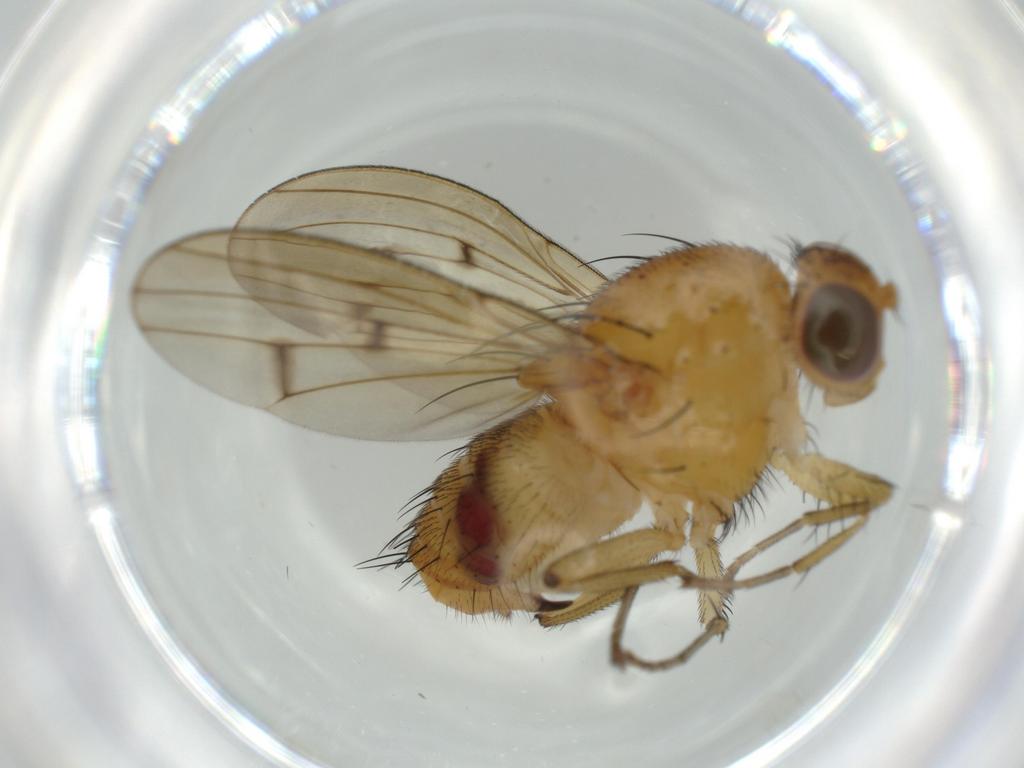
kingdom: Animalia
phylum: Arthropoda
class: Insecta
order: Diptera
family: Lauxaniidae
